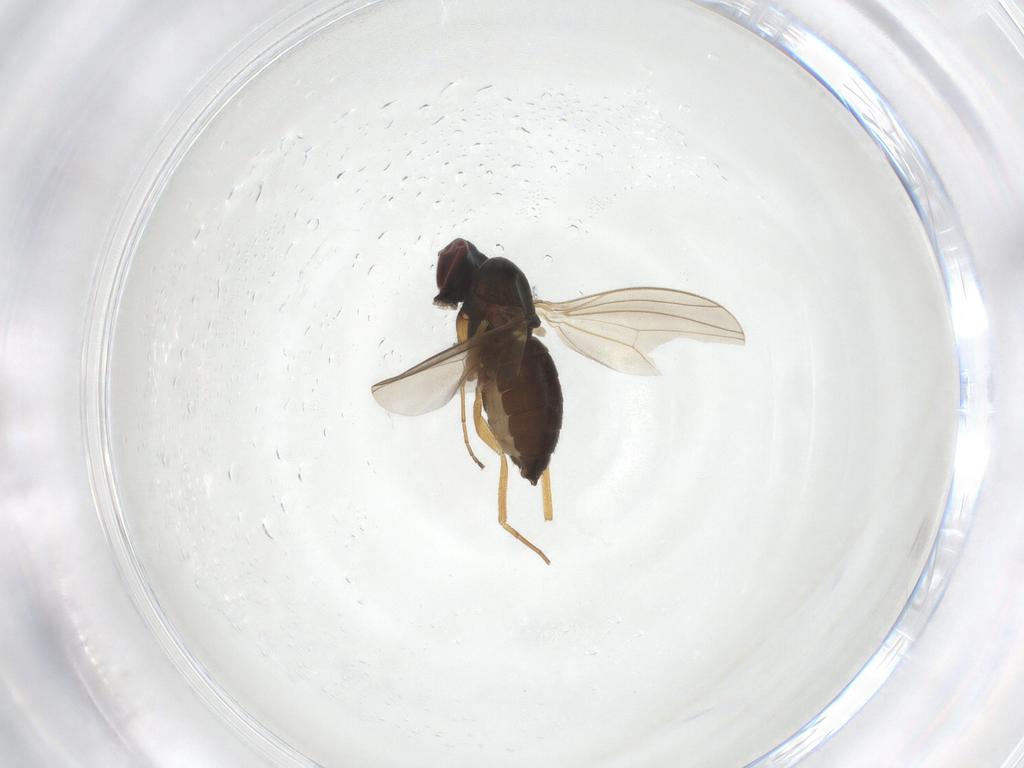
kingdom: Animalia
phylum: Arthropoda
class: Insecta
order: Diptera
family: Dolichopodidae
